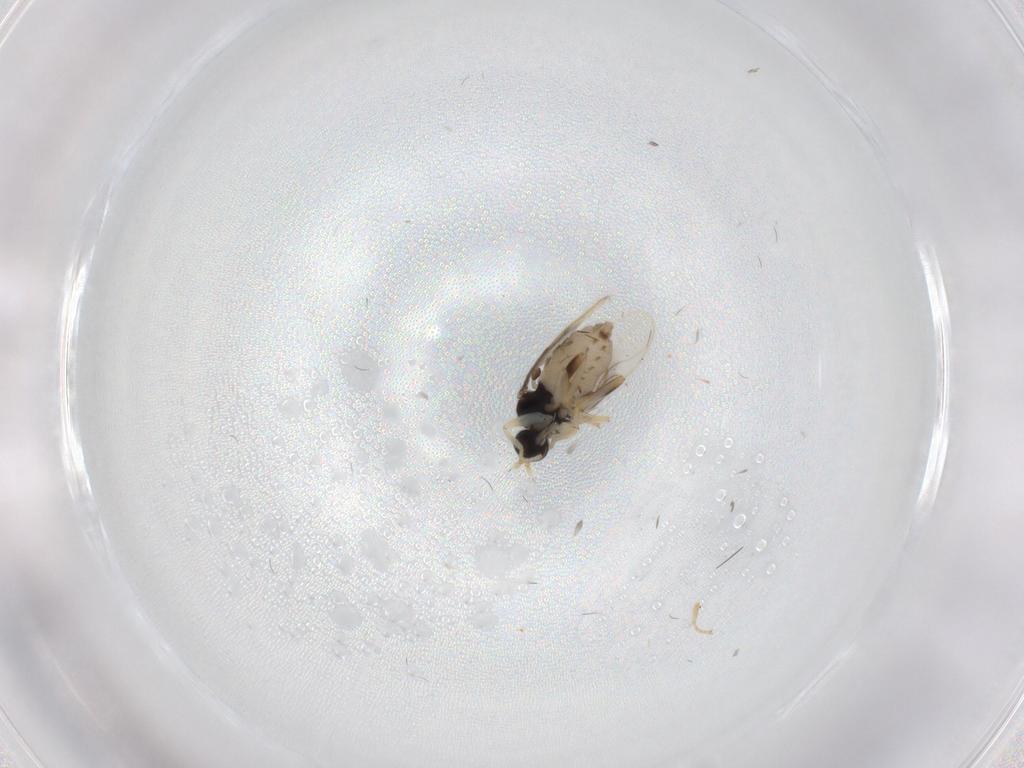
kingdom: Animalia
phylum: Arthropoda
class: Insecta
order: Diptera
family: Hybotidae
